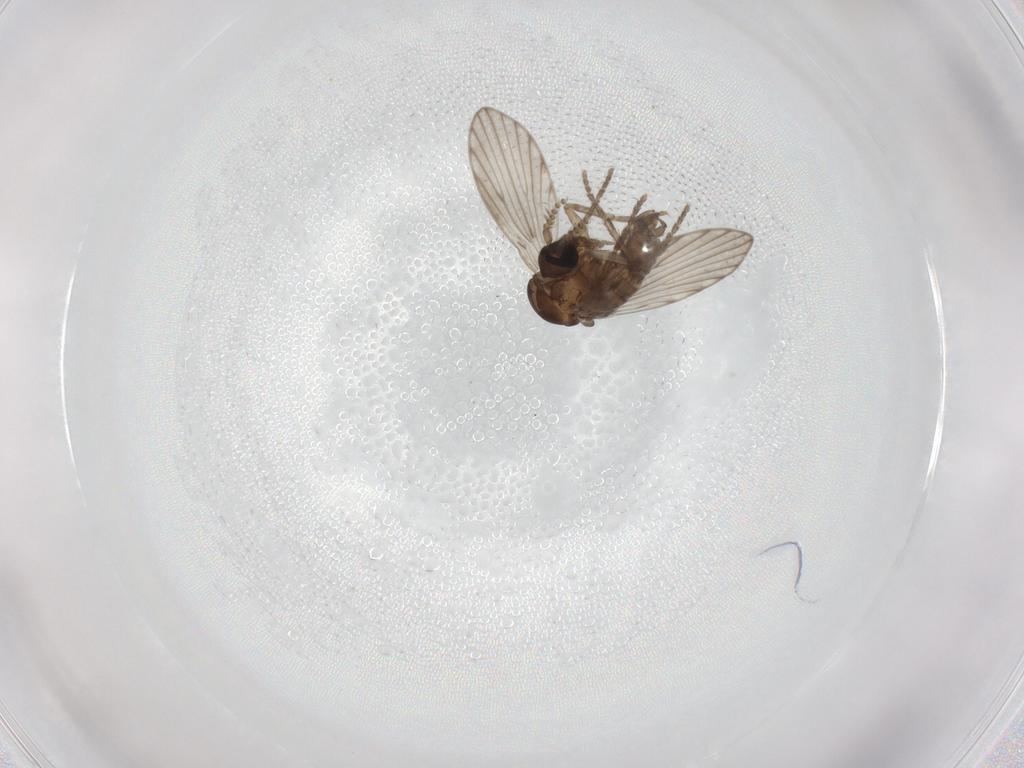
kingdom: Animalia
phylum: Arthropoda
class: Insecta
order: Diptera
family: Psychodidae
